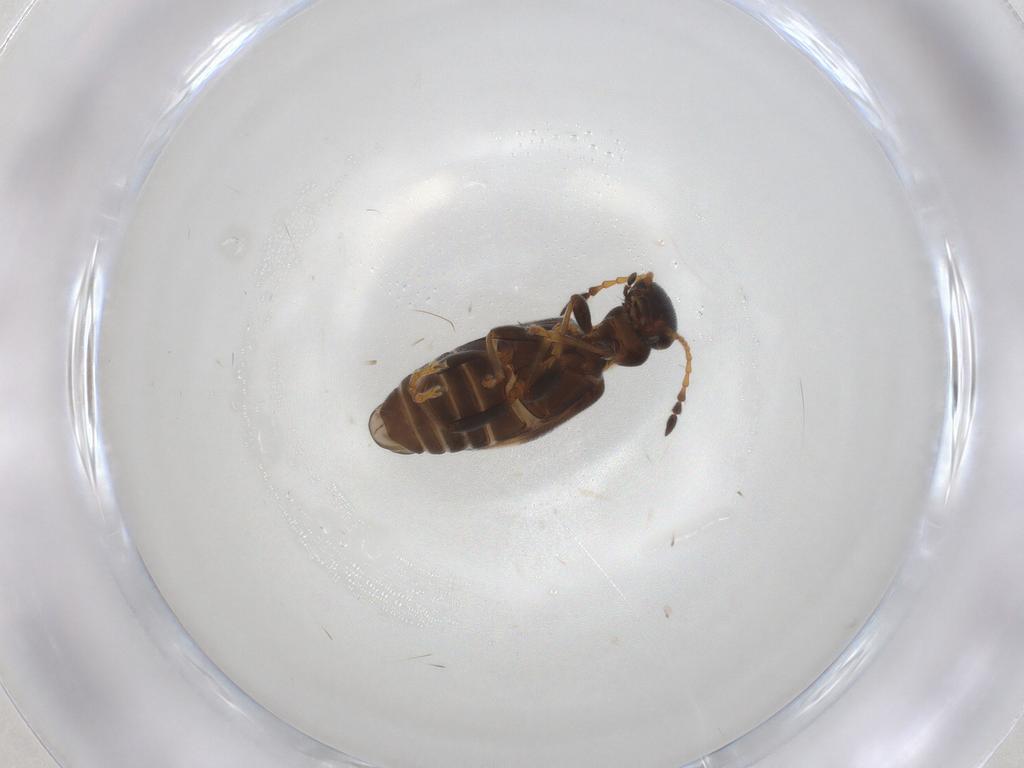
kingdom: Animalia
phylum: Arthropoda
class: Insecta
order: Coleoptera
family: Anthicidae
